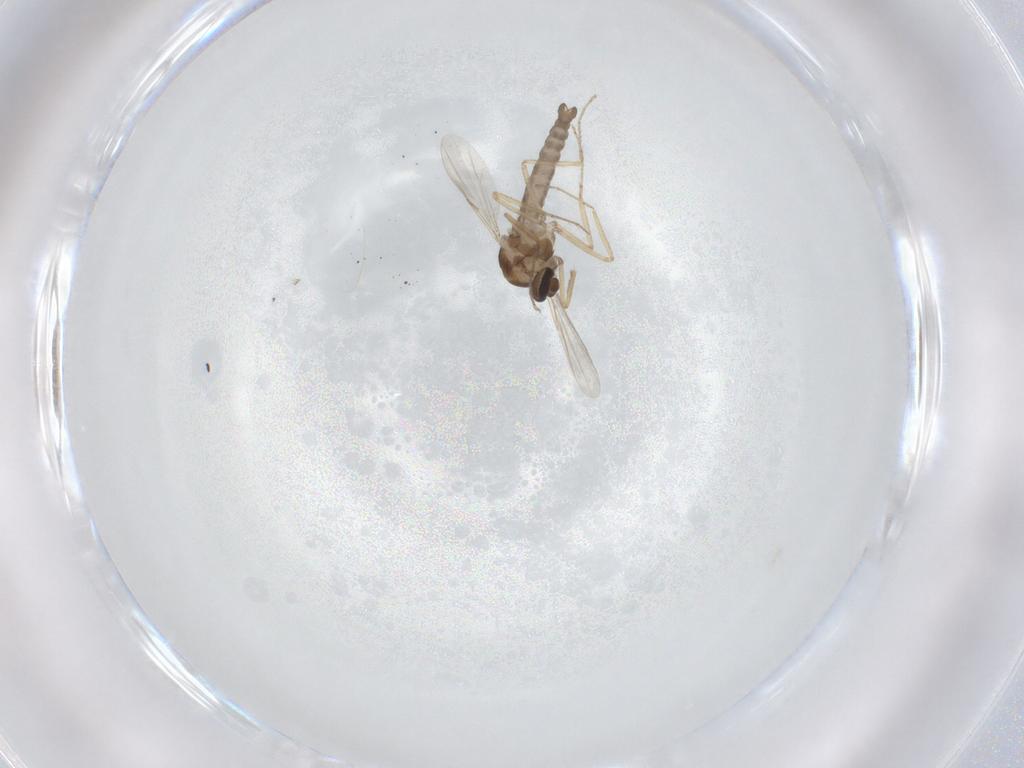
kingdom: Animalia
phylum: Arthropoda
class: Insecta
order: Diptera
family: Ceratopogonidae
